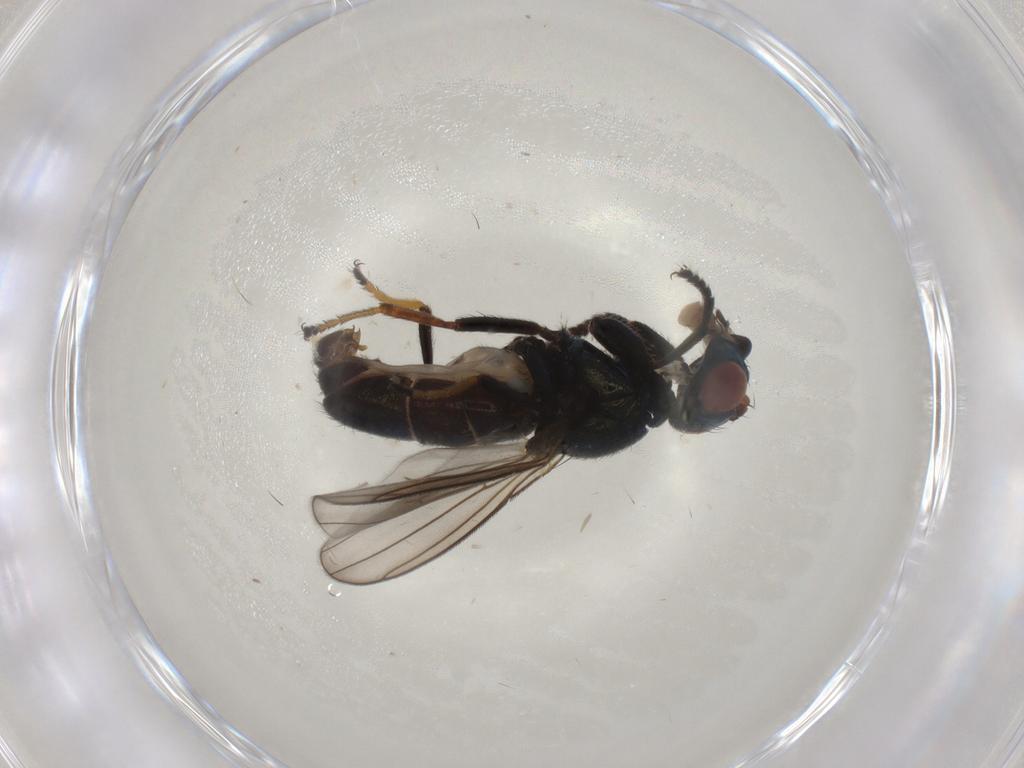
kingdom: Animalia
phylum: Arthropoda
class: Insecta
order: Diptera
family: Ephydridae
